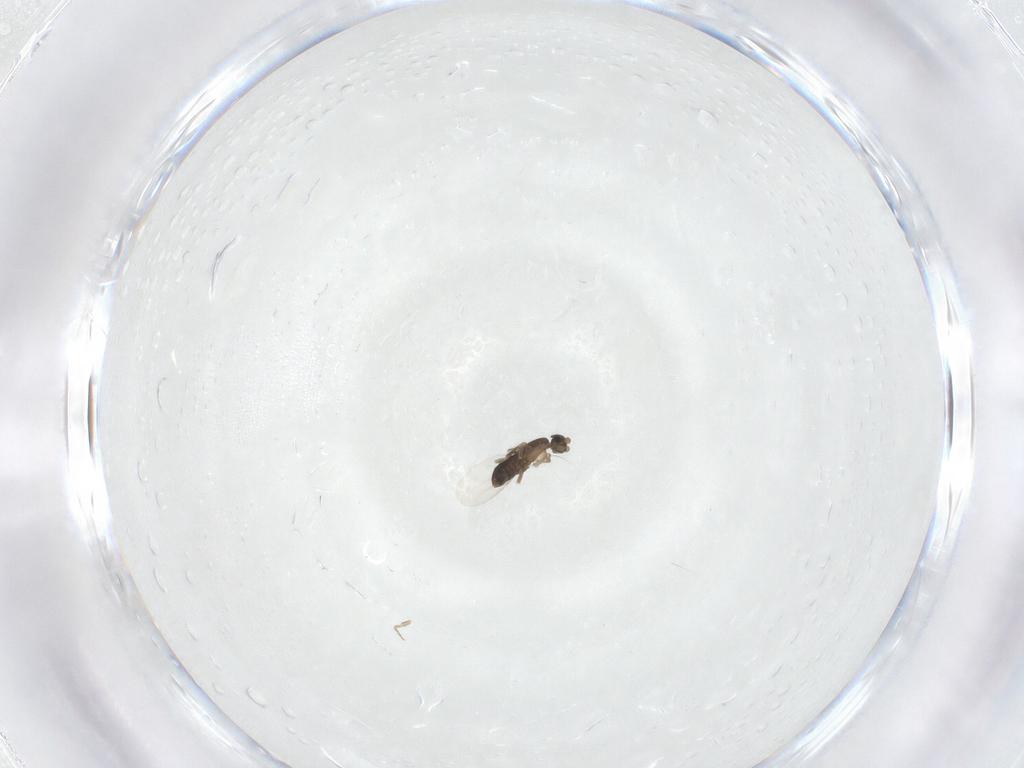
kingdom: Animalia
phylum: Arthropoda
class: Insecta
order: Diptera
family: Phoridae
